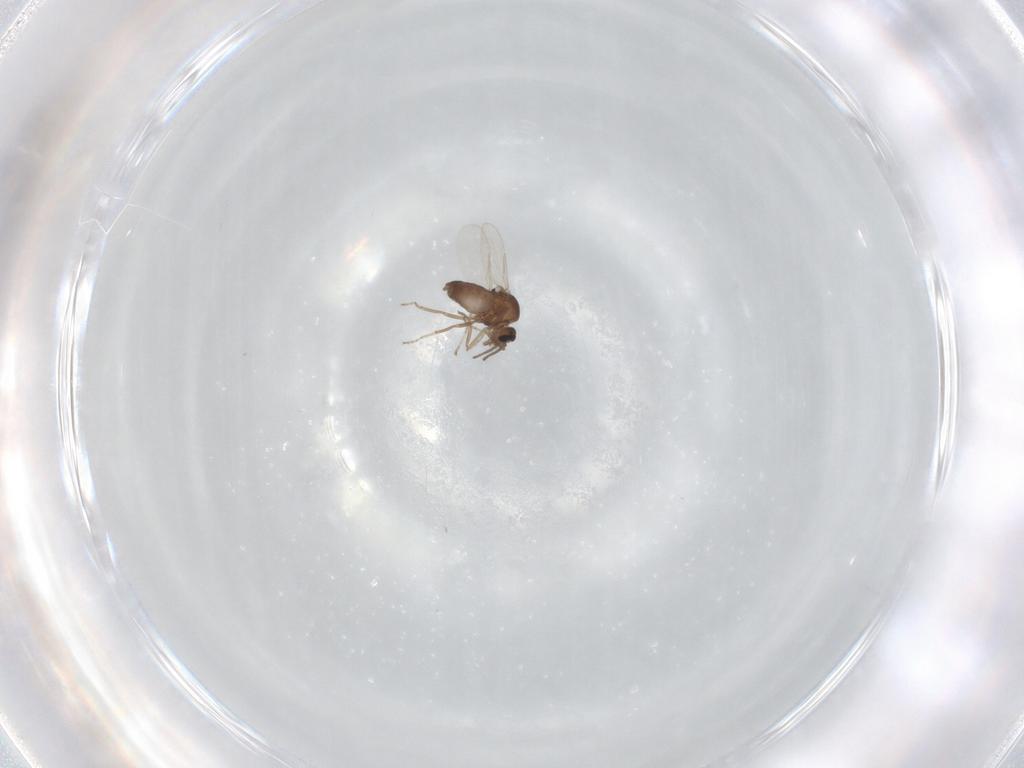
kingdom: Animalia
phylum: Arthropoda
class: Insecta
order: Diptera
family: Ceratopogonidae
